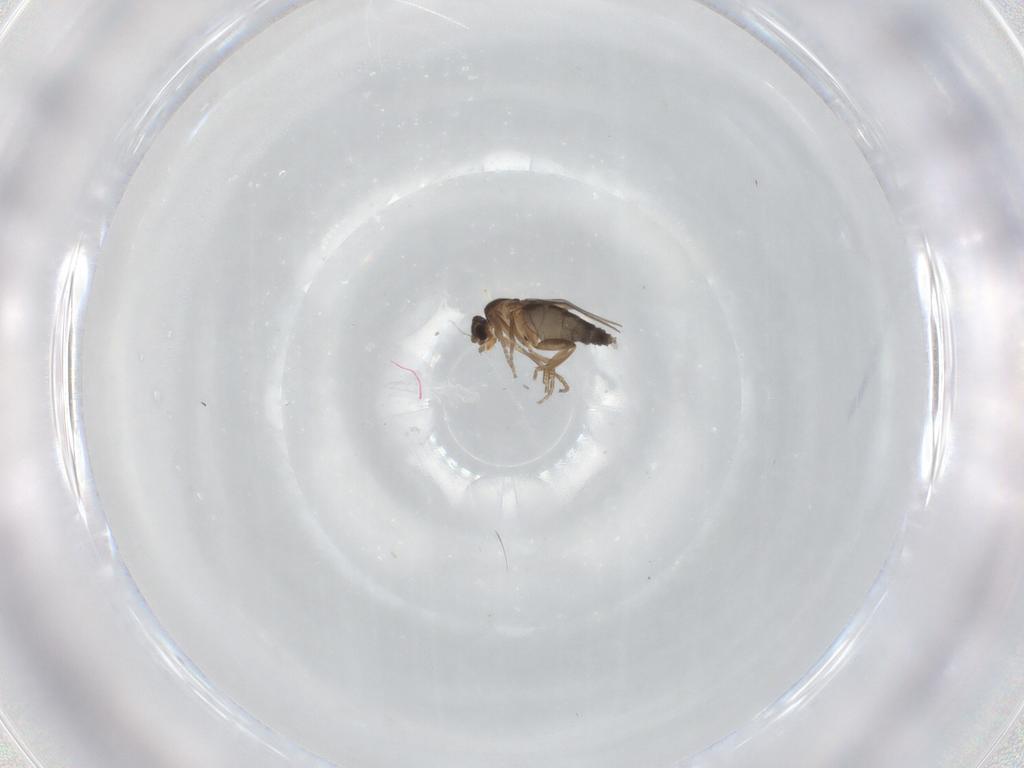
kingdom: Animalia
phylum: Arthropoda
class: Insecta
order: Diptera
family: Phoridae
